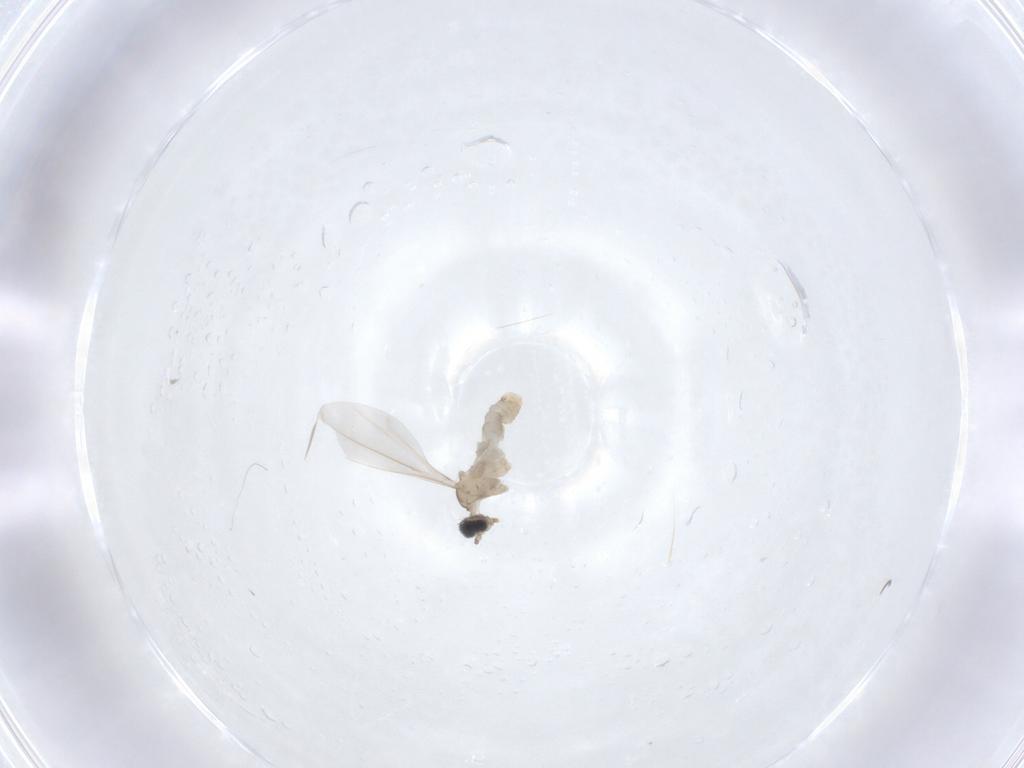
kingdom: Animalia
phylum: Arthropoda
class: Insecta
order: Diptera
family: Cecidomyiidae
